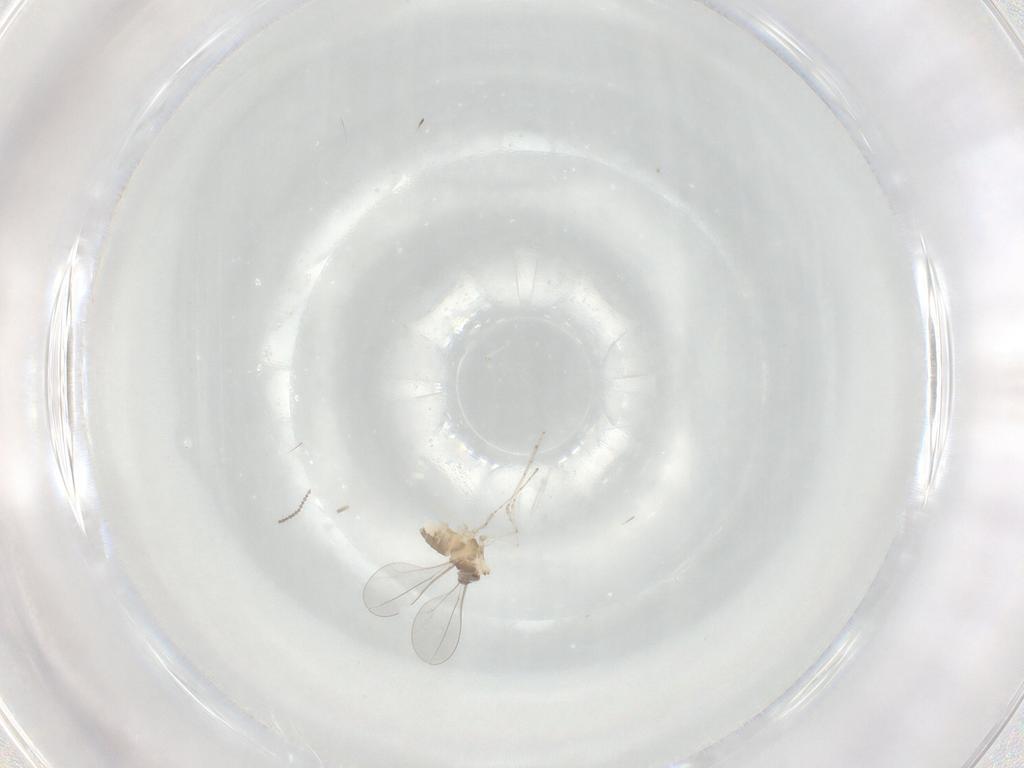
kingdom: Animalia
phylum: Arthropoda
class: Insecta
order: Diptera
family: Cecidomyiidae
